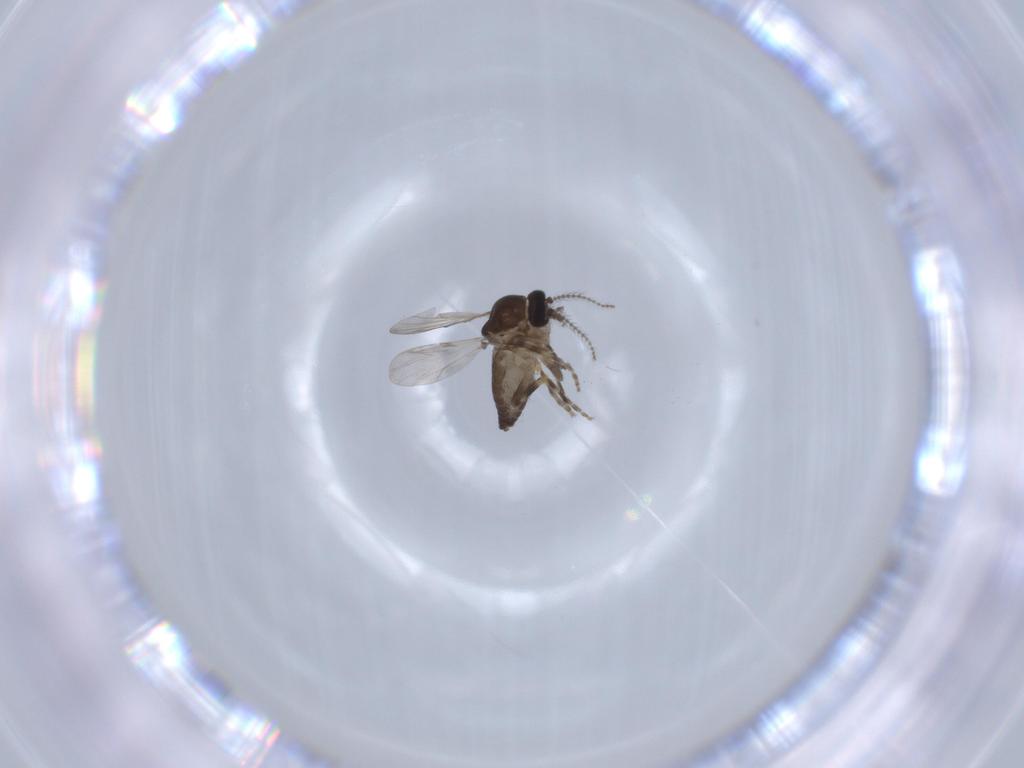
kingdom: Animalia
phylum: Arthropoda
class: Insecta
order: Diptera
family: Ceratopogonidae
